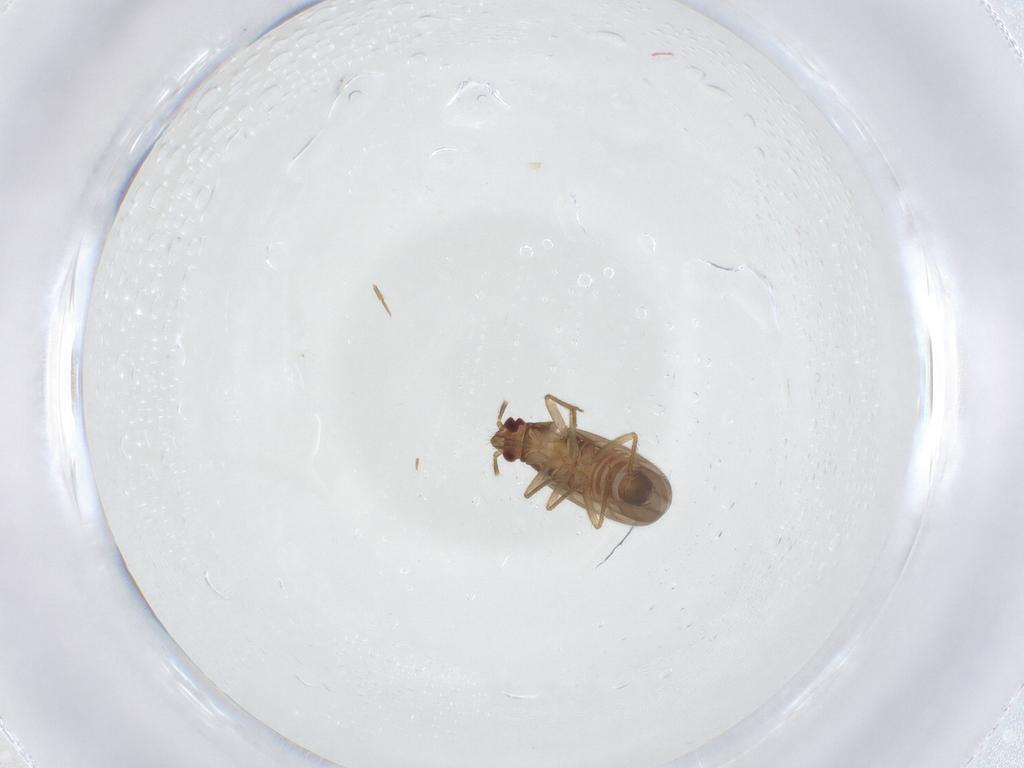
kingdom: Animalia
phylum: Arthropoda
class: Insecta
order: Hemiptera
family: Ceratocombidae
